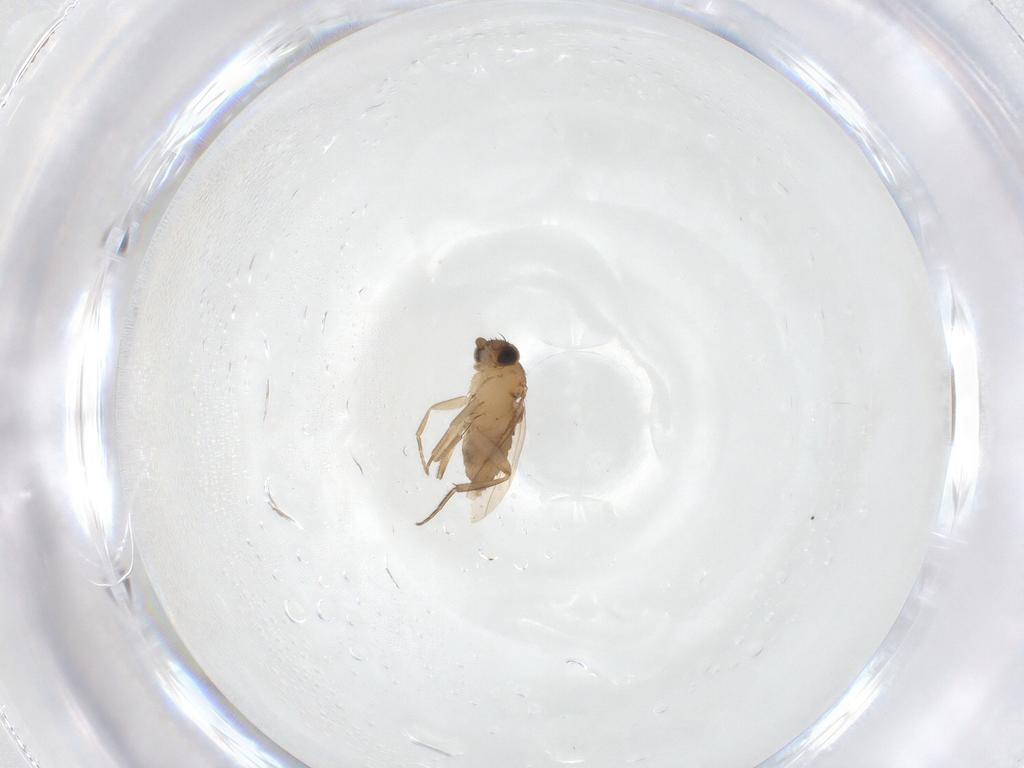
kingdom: Animalia
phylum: Arthropoda
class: Insecta
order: Diptera
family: Phoridae
